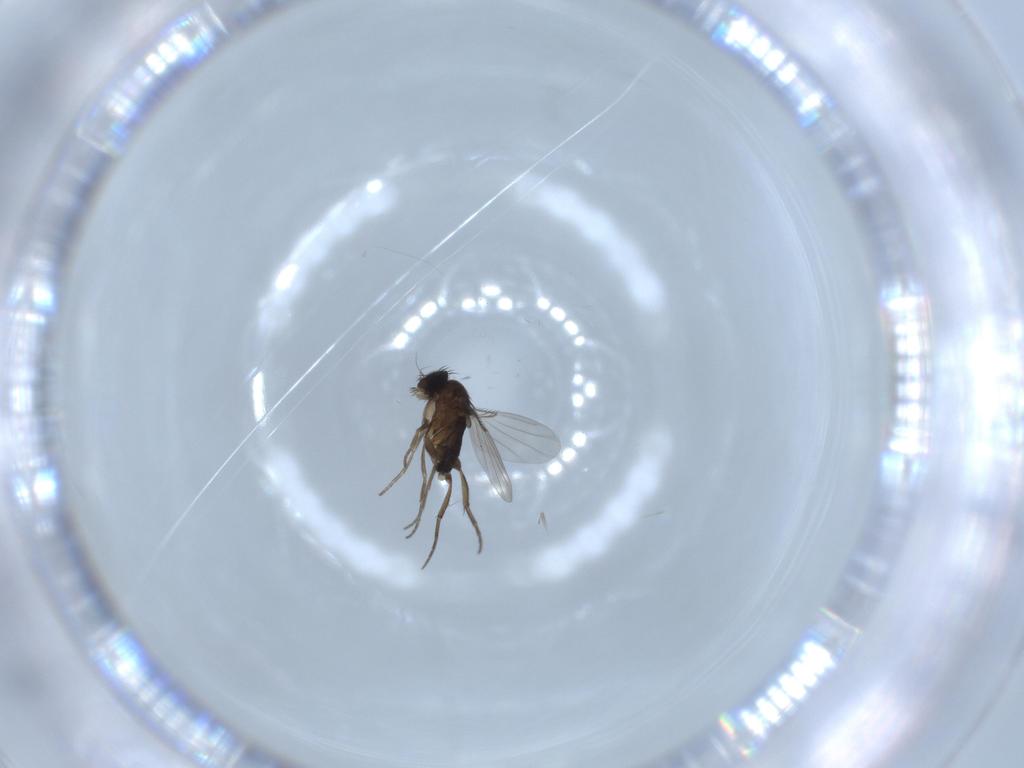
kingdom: Animalia
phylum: Arthropoda
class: Insecta
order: Diptera
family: Phoridae
